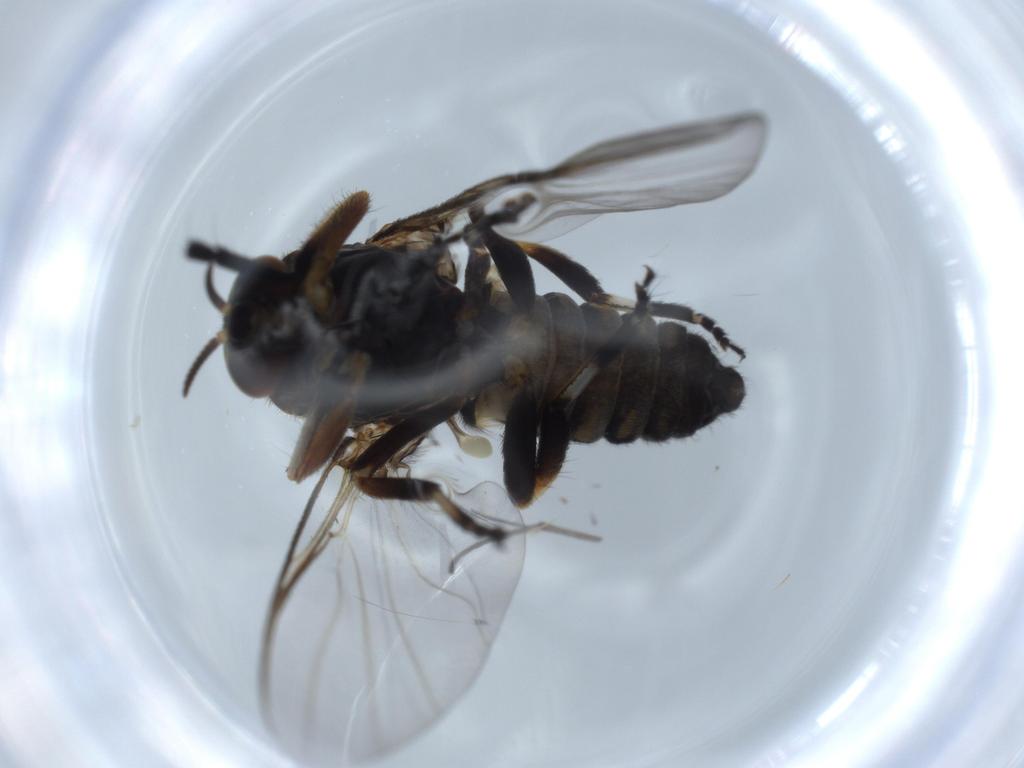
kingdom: Animalia
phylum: Arthropoda
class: Insecta
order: Diptera
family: Cecidomyiidae
